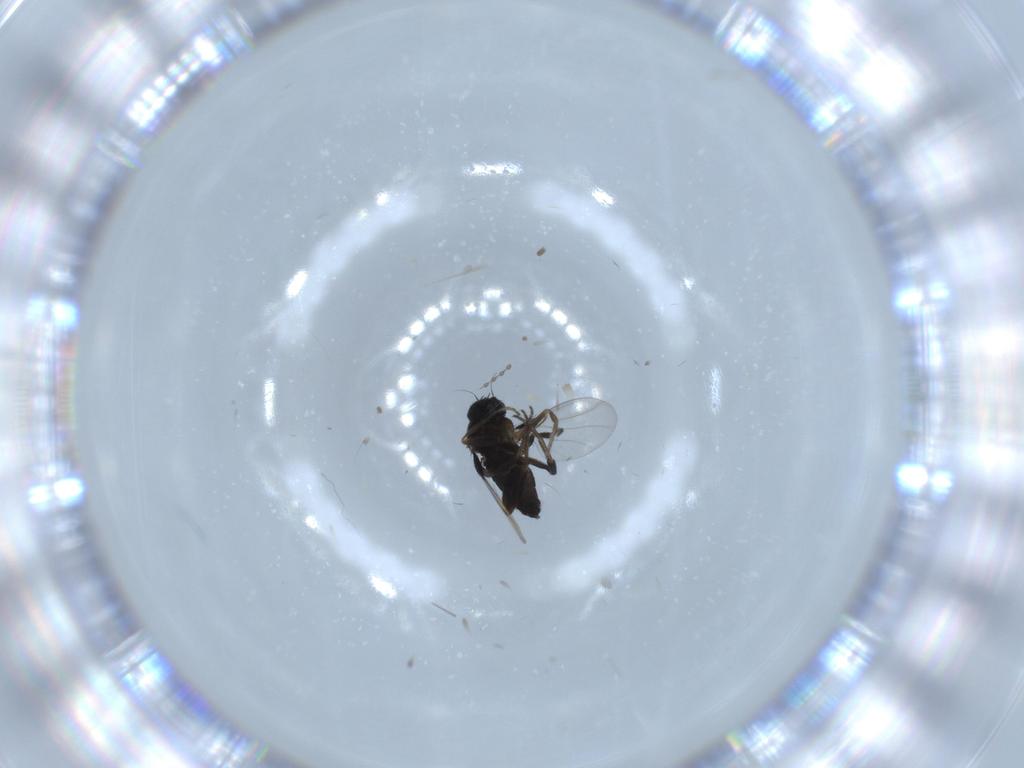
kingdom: Animalia
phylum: Arthropoda
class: Insecta
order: Diptera
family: Phoridae
